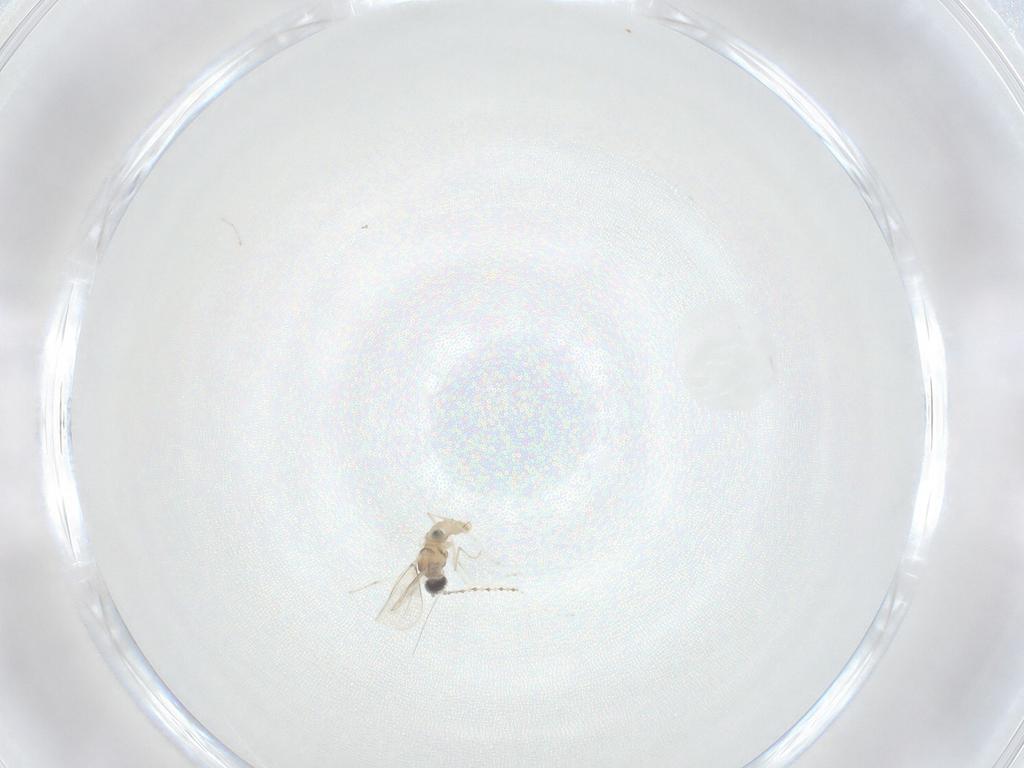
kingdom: Animalia
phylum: Arthropoda
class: Insecta
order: Diptera
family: Cecidomyiidae
